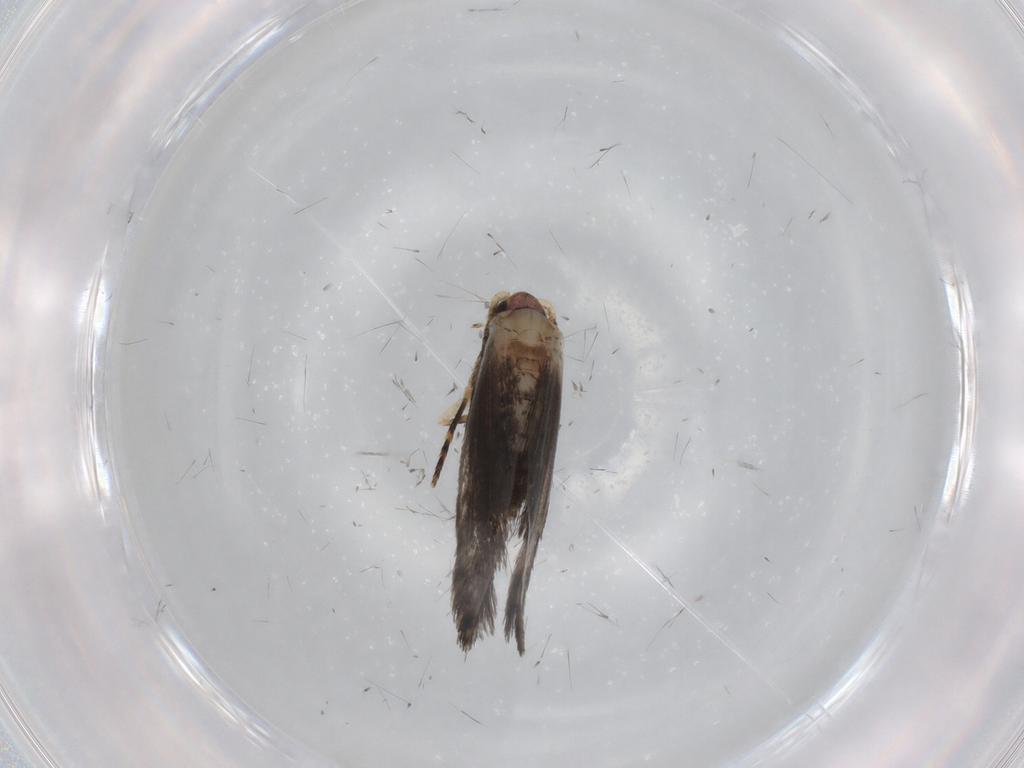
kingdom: Animalia
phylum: Arthropoda
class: Insecta
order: Lepidoptera
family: Tineidae
